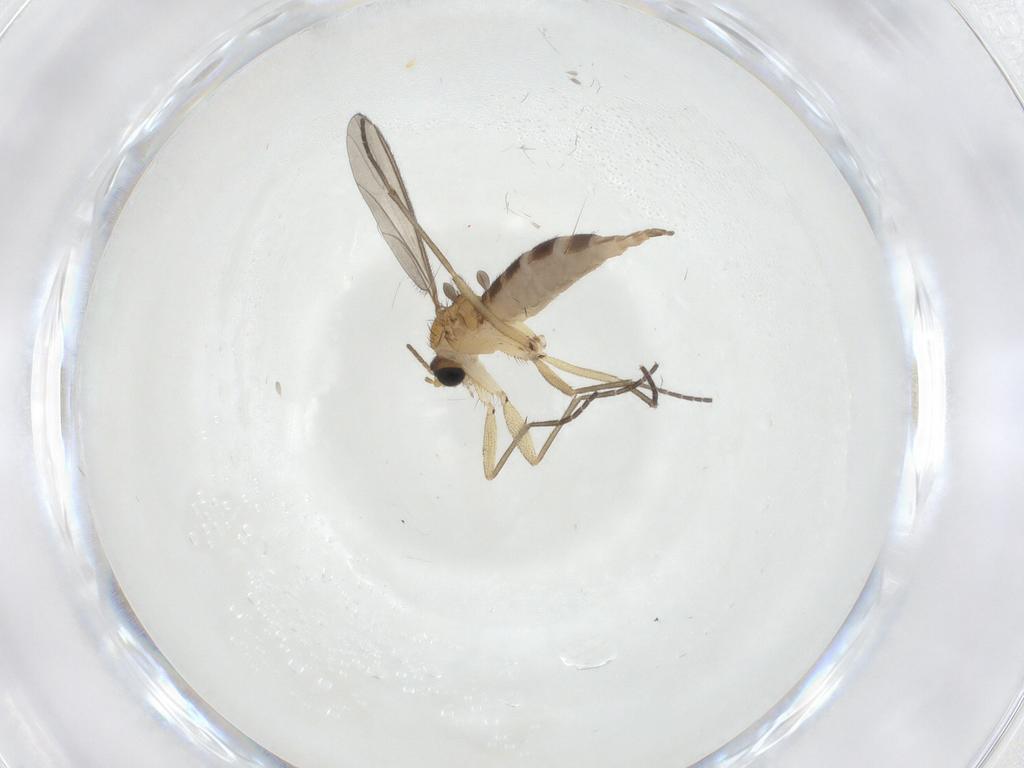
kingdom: Animalia
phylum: Arthropoda
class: Insecta
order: Diptera
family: Sciaridae
